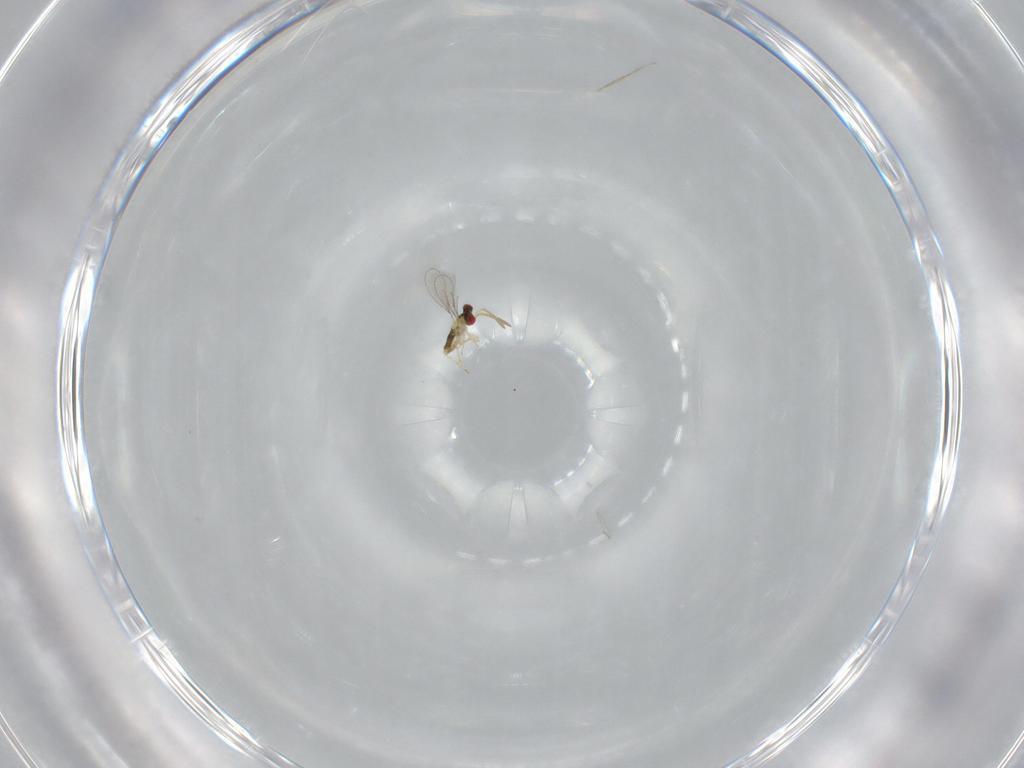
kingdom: Animalia
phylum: Arthropoda
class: Insecta
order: Hymenoptera
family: Aphelinidae
